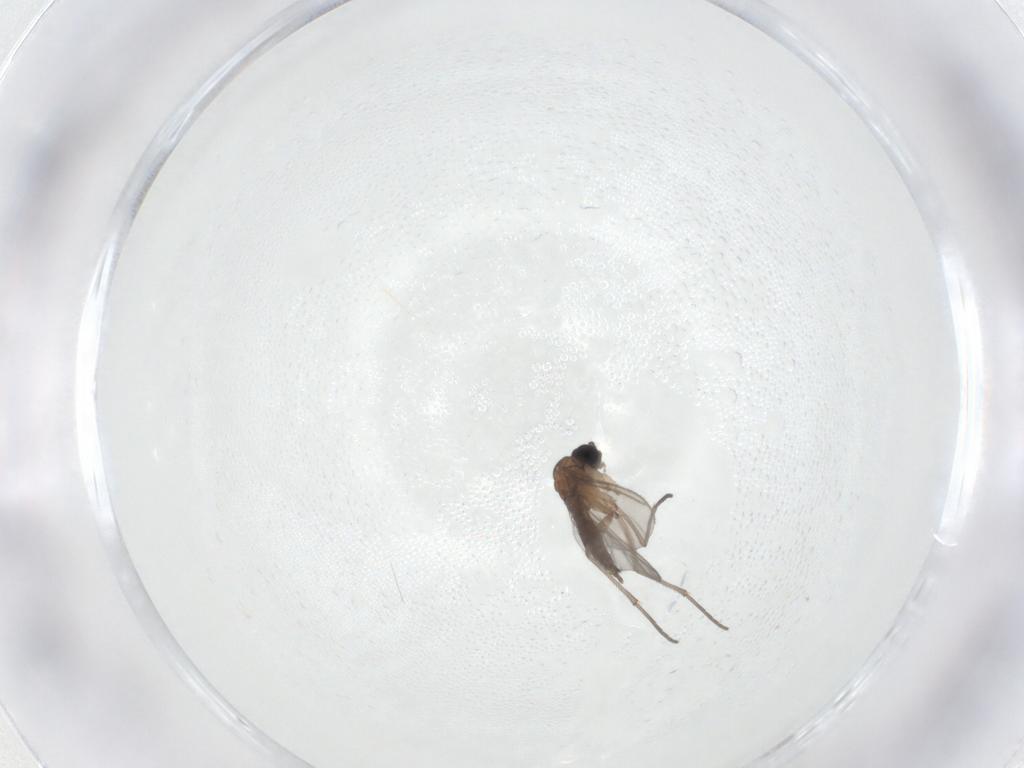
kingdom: Animalia
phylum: Arthropoda
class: Insecta
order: Diptera
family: Sciaridae
